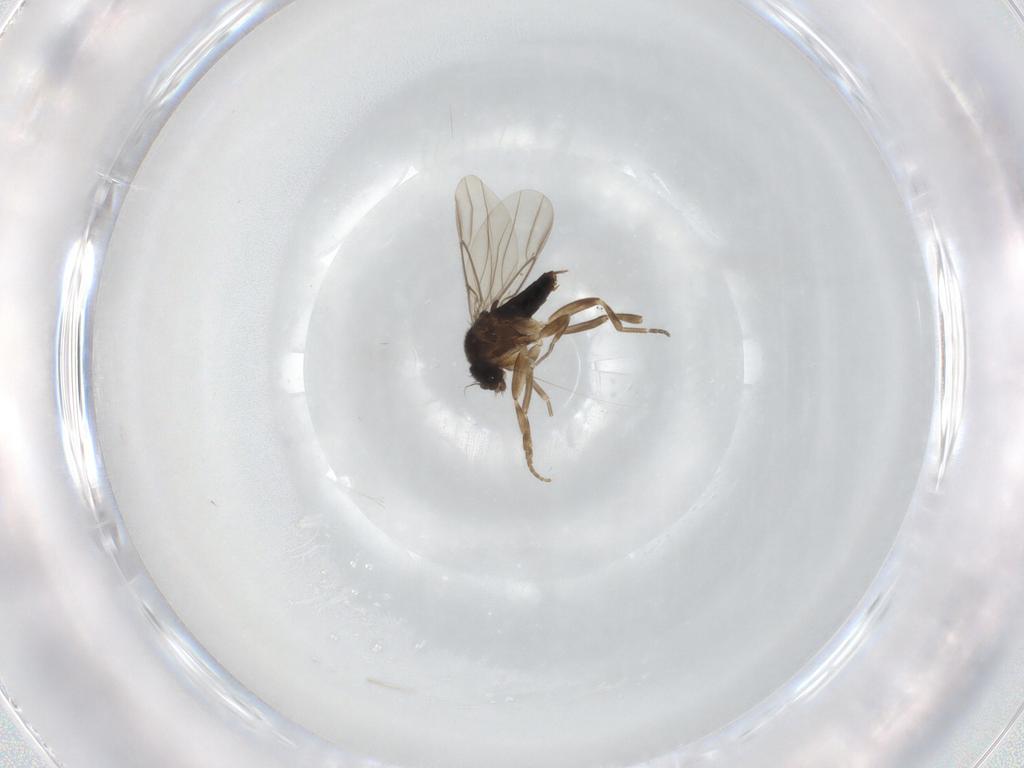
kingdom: Animalia
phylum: Arthropoda
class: Insecta
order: Diptera
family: Phoridae
